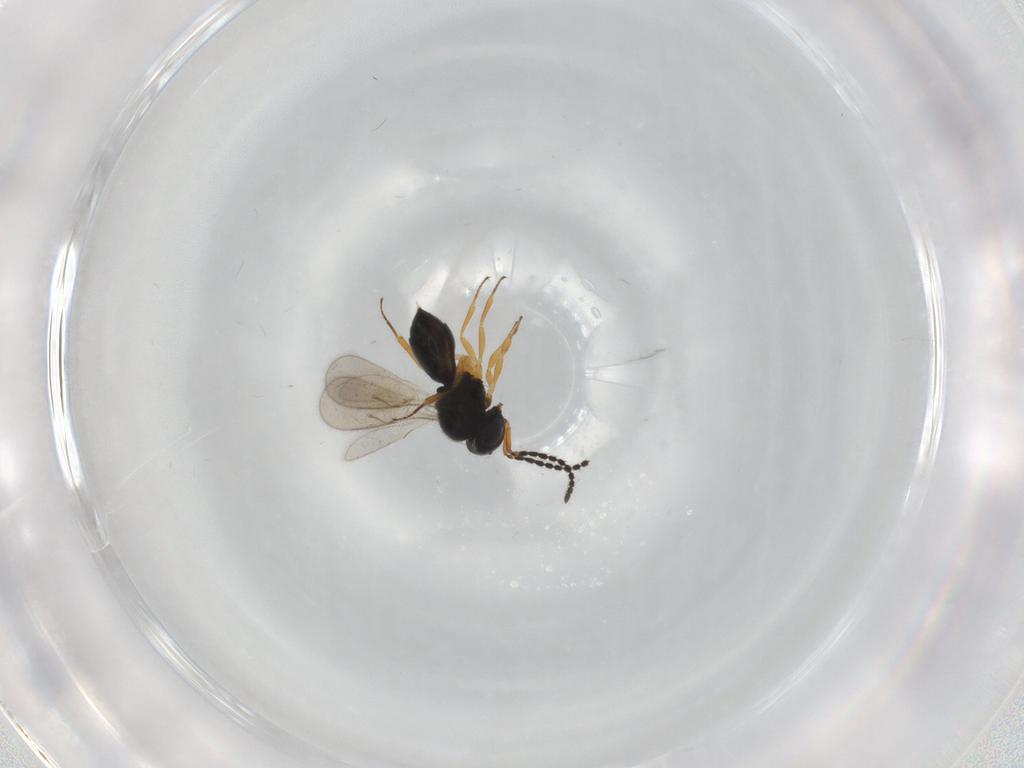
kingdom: Animalia
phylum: Arthropoda
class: Insecta
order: Hymenoptera
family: Scelionidae
